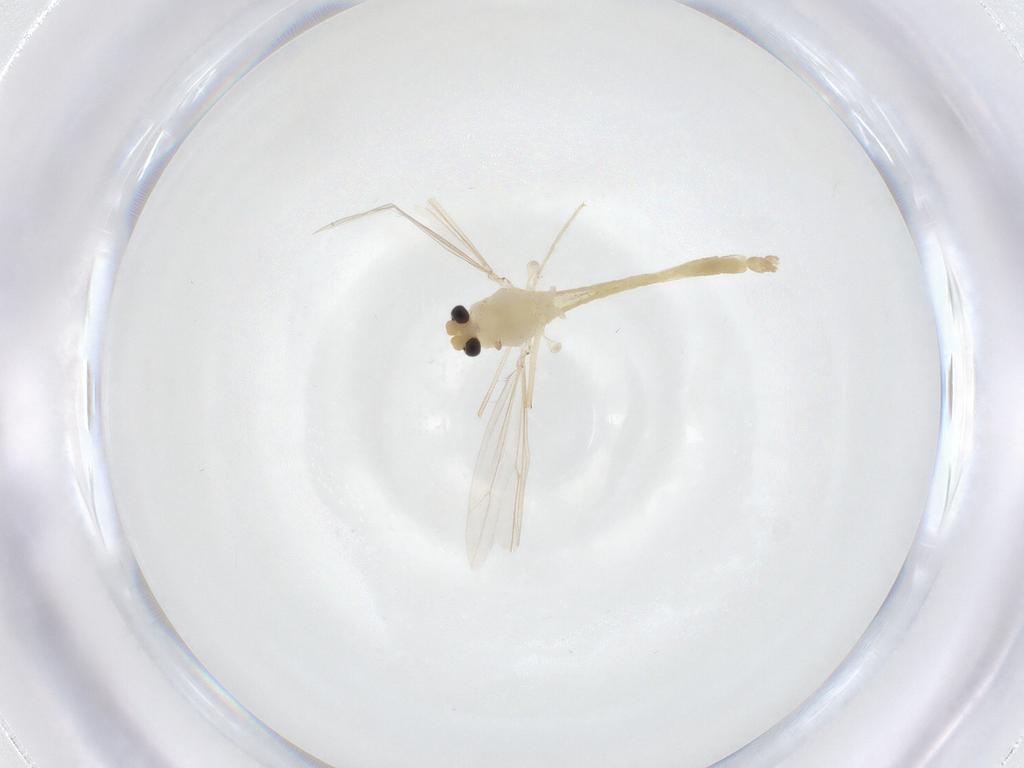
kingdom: Animalia
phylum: Arthropoda
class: Insecta
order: Diptera
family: Chironomidae
